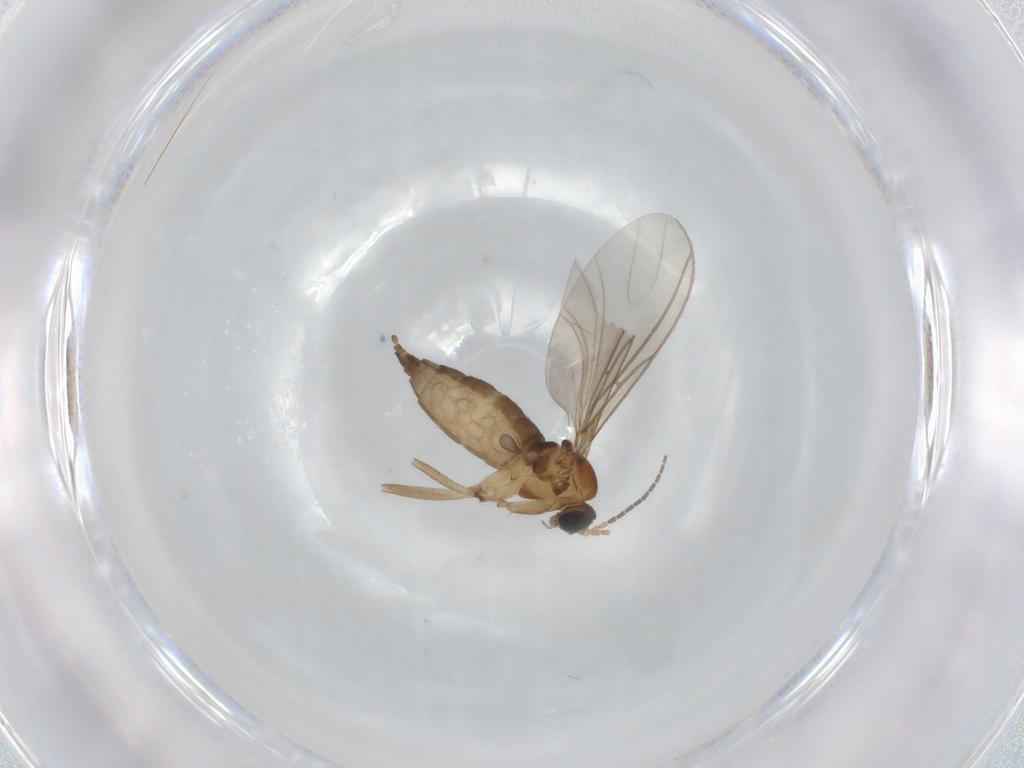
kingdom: Animalia
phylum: Arthropoda
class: Insecta
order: Diptera
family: Sciaridae
